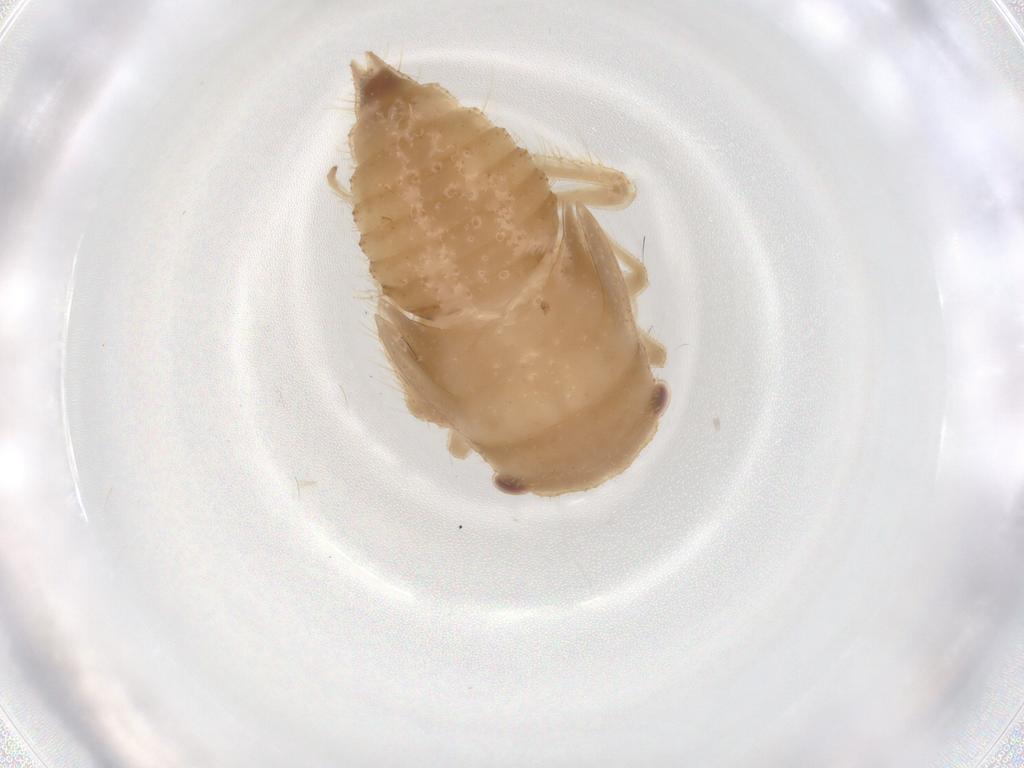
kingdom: Animalia
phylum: Arthropoda
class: Insecta
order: Hemiptera
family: Cicadellidae
